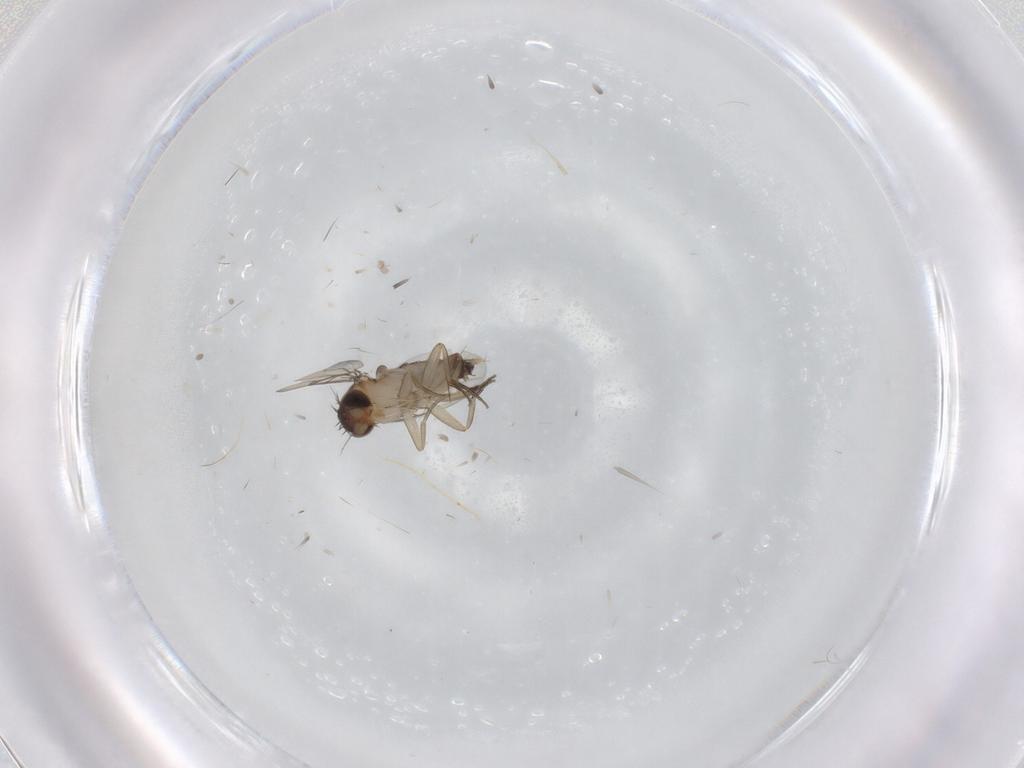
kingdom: Animalia
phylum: Arthropoda
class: Insecta
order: Diptera
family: Phoridae
